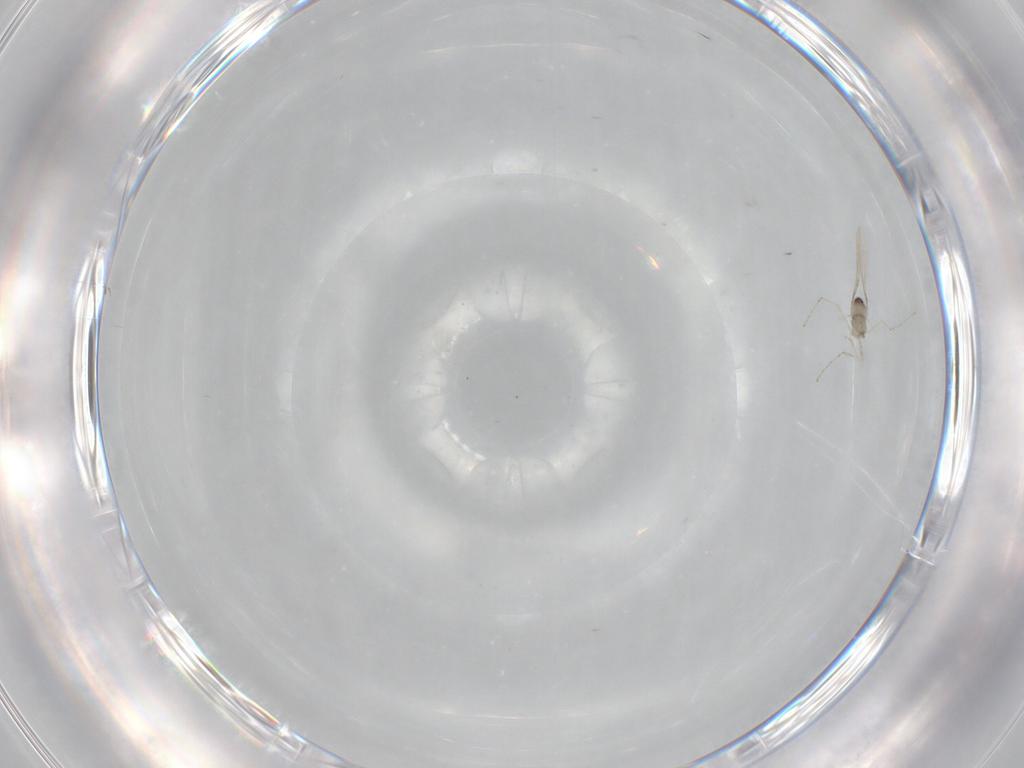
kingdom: Animalia
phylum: Arthropoda
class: Insecta
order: Diptera
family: Cecidomyiidae
